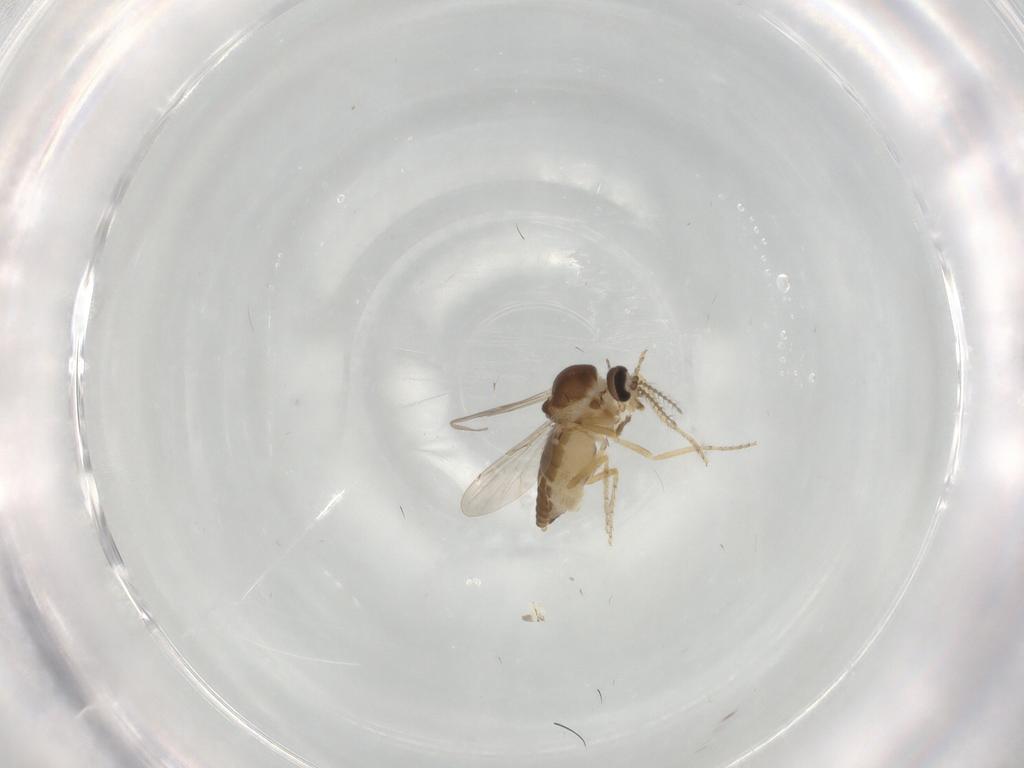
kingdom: Animalia
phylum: Arthropoda
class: Insecta
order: Diptera
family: Ceratopogonidae
